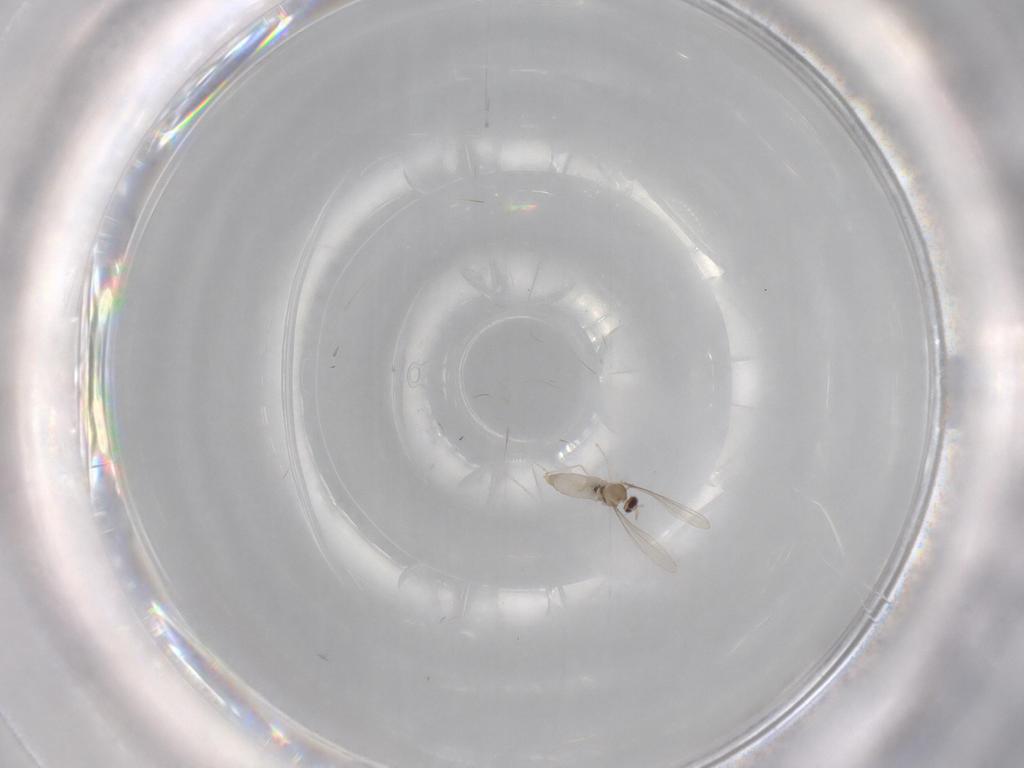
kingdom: Animalia
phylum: Arthropoda
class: Insecta
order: Diptera
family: Cecidomyiidae
